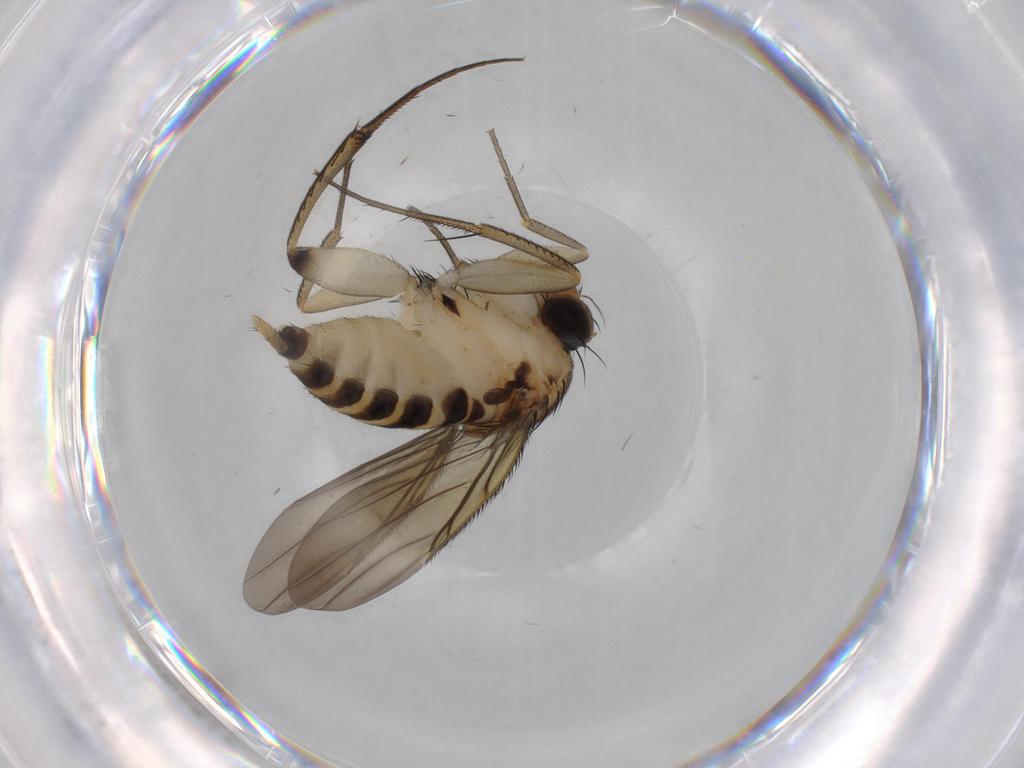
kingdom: Animalia
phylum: Arthropoda
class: Insecta
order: Diptera
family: Phoridae
